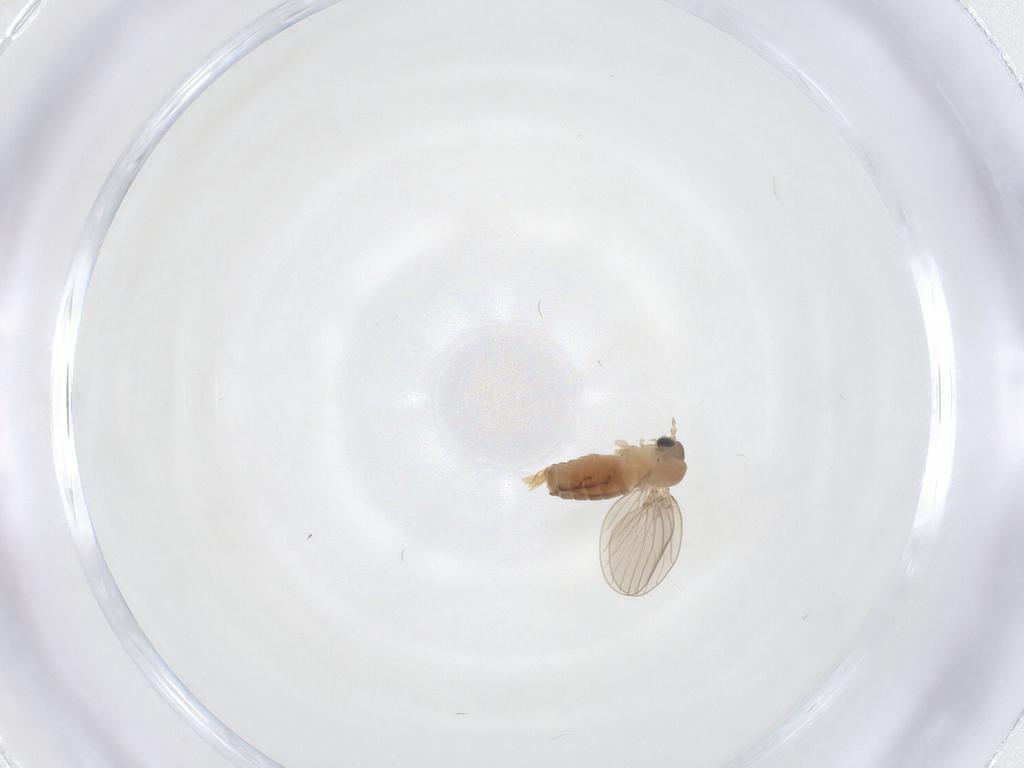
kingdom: Animalia
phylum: Arthropoda
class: Insecta
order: Diptera
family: Psychodidae
